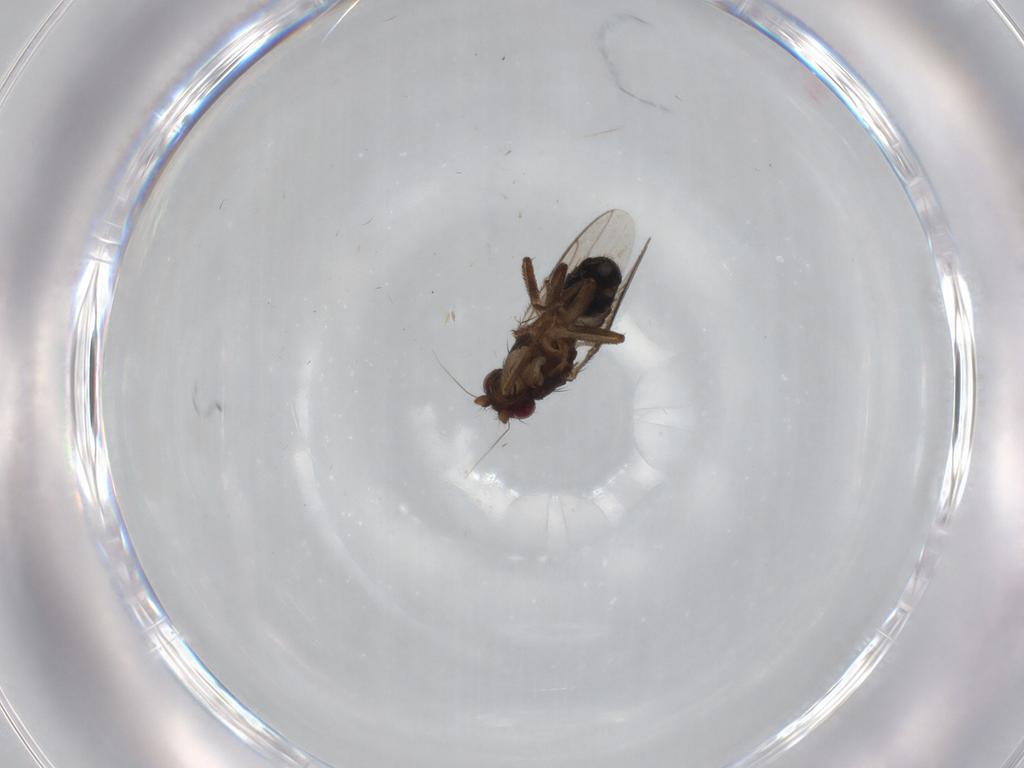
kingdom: Animalia
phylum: Arthropoda
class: Insecta
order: Diptera
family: Sphaeroceridae
